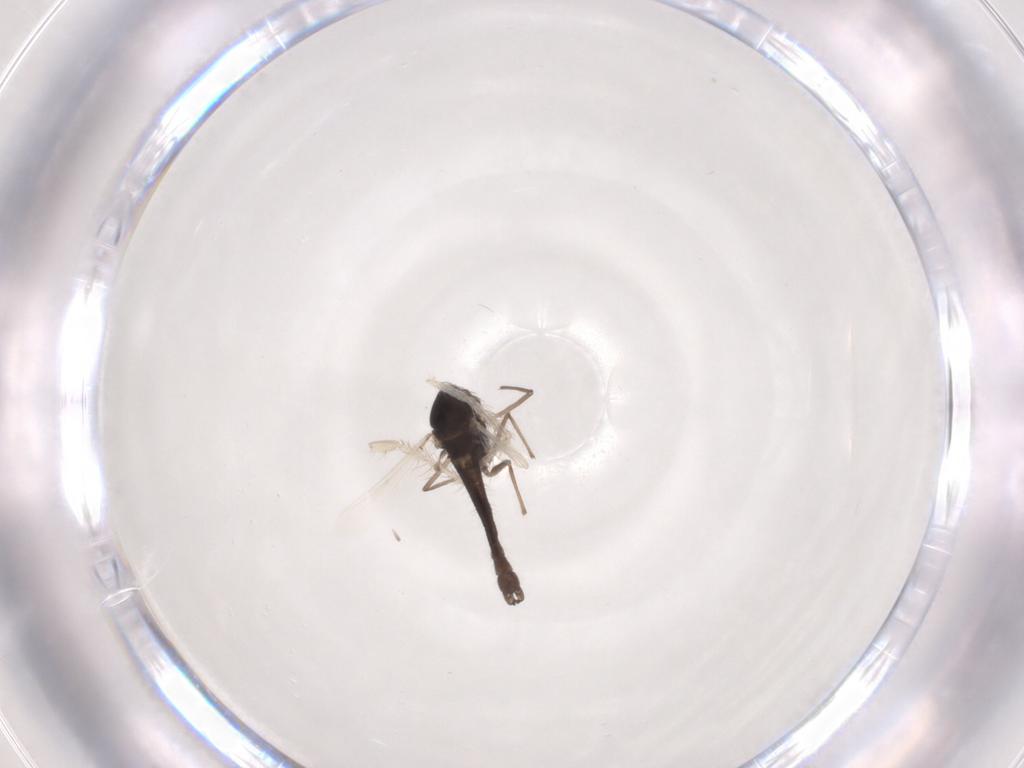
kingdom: Animalia
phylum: Arthropoda
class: Insecta
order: Diptera
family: Chironomidae
